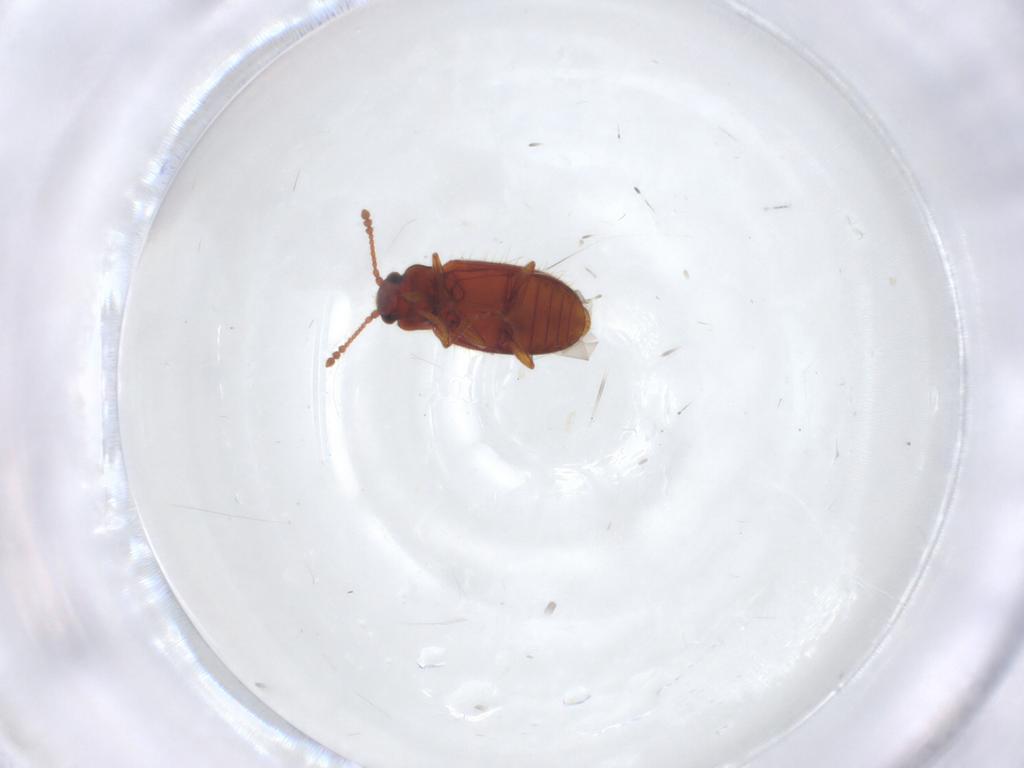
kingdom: Animalia
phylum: Arthropoda
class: Insecta
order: Coleoptera
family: Cryptophagidae
